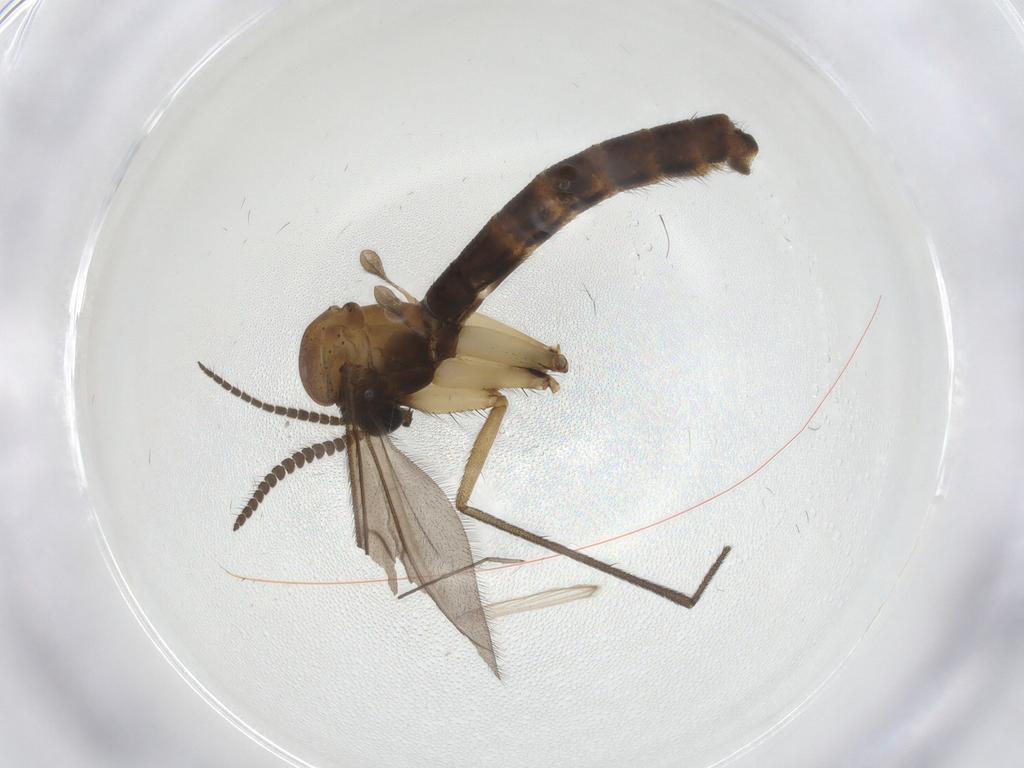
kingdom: Animalia
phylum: Arthropoda
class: Insecta
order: Diptera
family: Ditomyiidae
